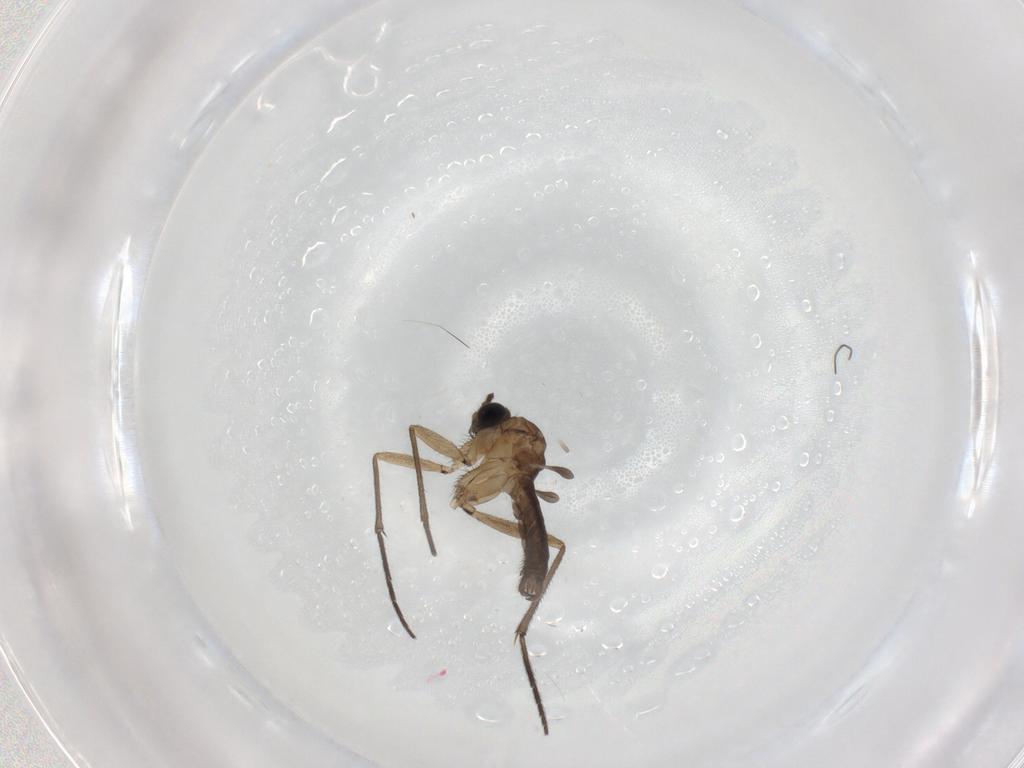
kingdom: Animalia
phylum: Arthropoda
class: Insecta
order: Diptera
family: Sciaridae
